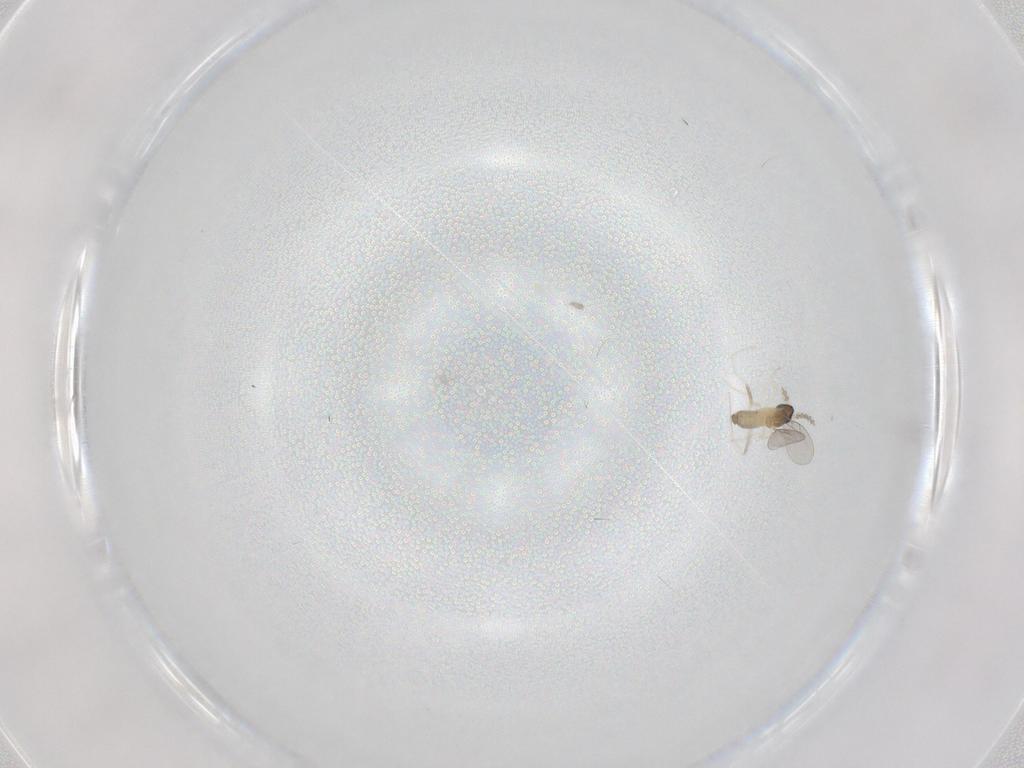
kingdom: Animalia
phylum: Arthropoda
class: Insecta
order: Diptera
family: Cecidomyiidae
